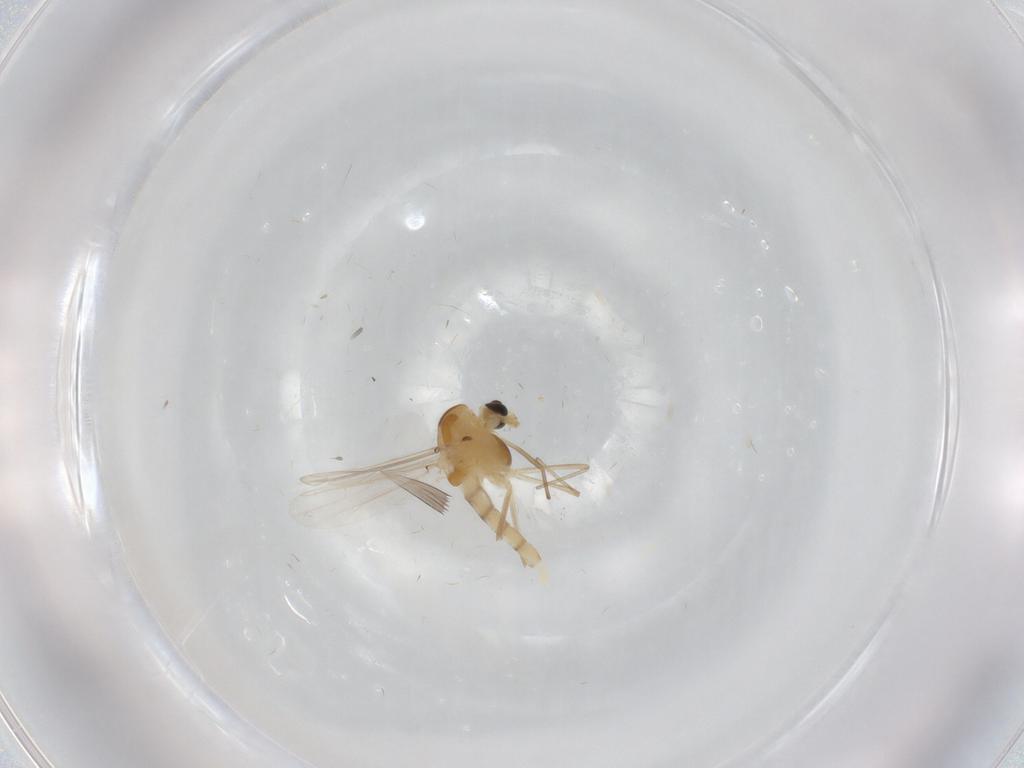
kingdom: Animalia
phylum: Arthropoda
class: Insecta
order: Diptera
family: Chironomidae
